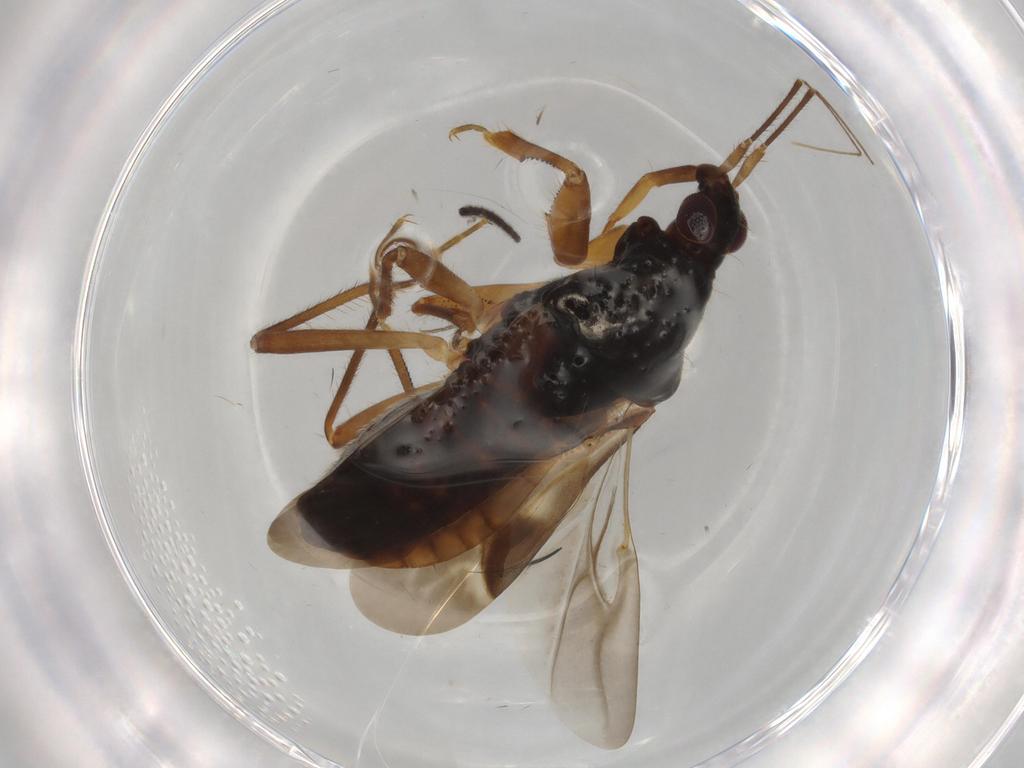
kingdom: Animalia
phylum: Arthropoda
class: Insecta
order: Hemiptera
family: Nabidae
